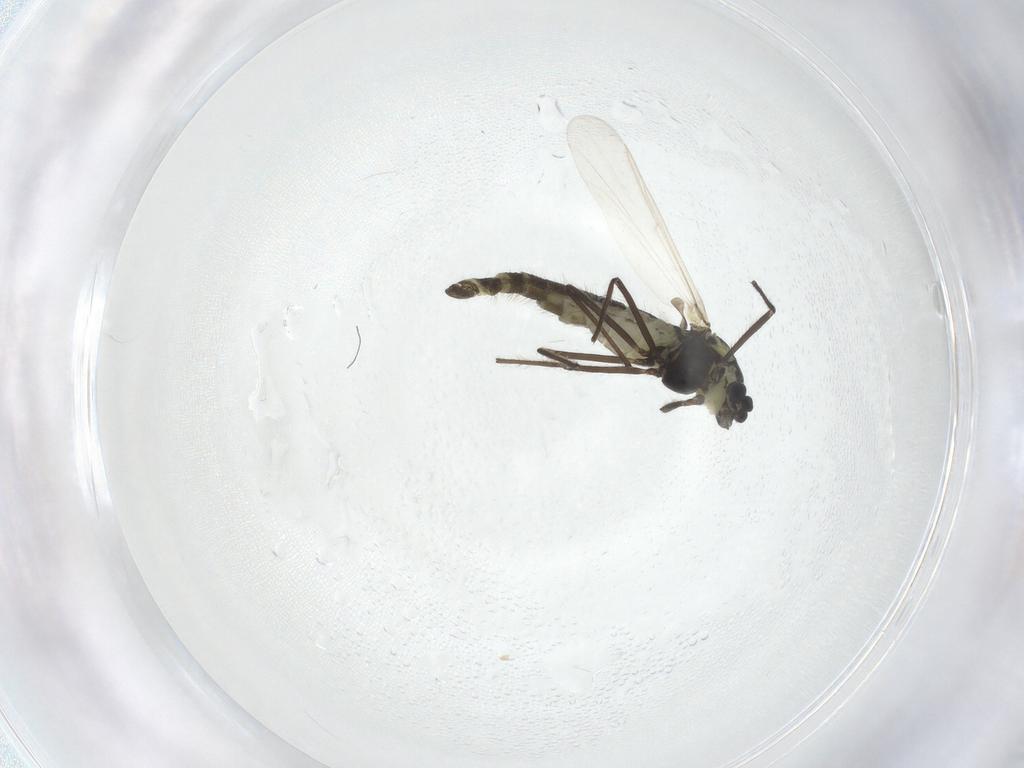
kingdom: Animalia
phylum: Arthropoda
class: Insecta
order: Diptera
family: Chironomidae
